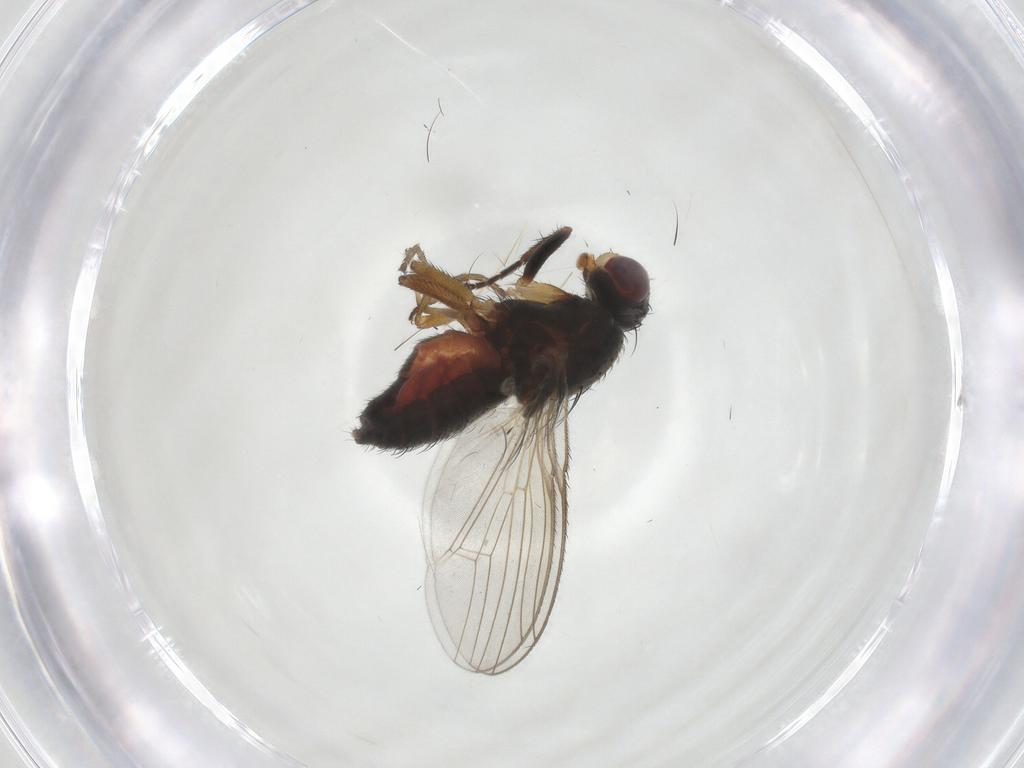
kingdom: Animalia
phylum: Arthropoda
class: Insecta
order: Diptera
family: Heleomyzidae
